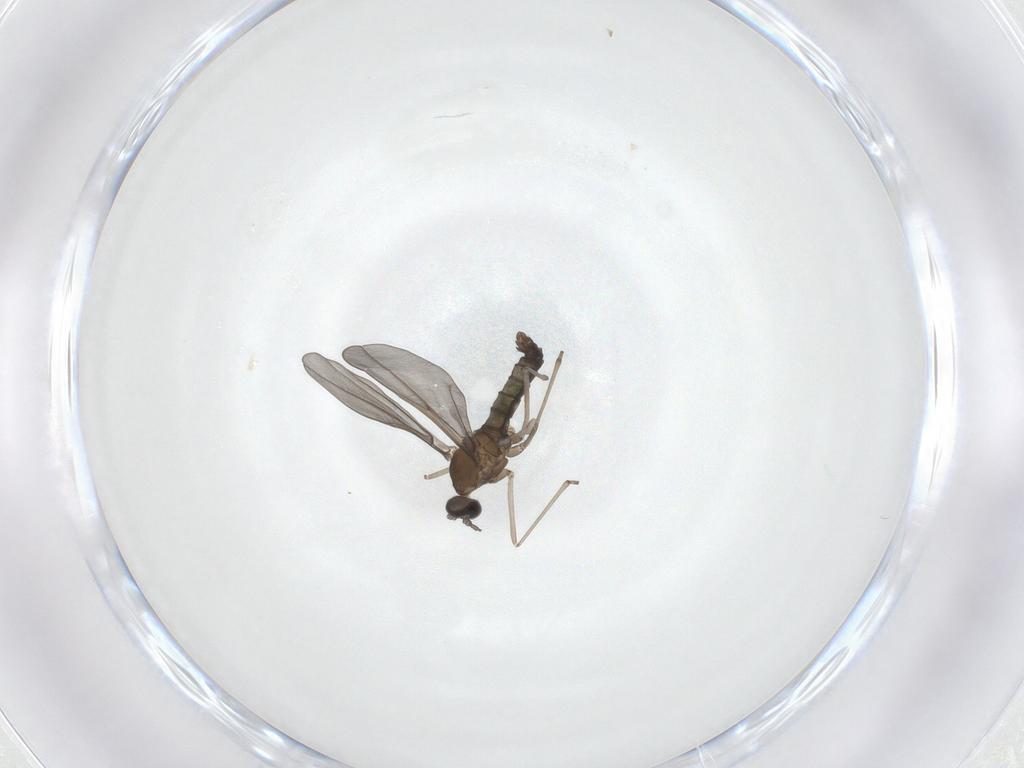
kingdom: Animalia
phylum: Arthropoda
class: Insecta
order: Diptera
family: Cecidomyiidae
